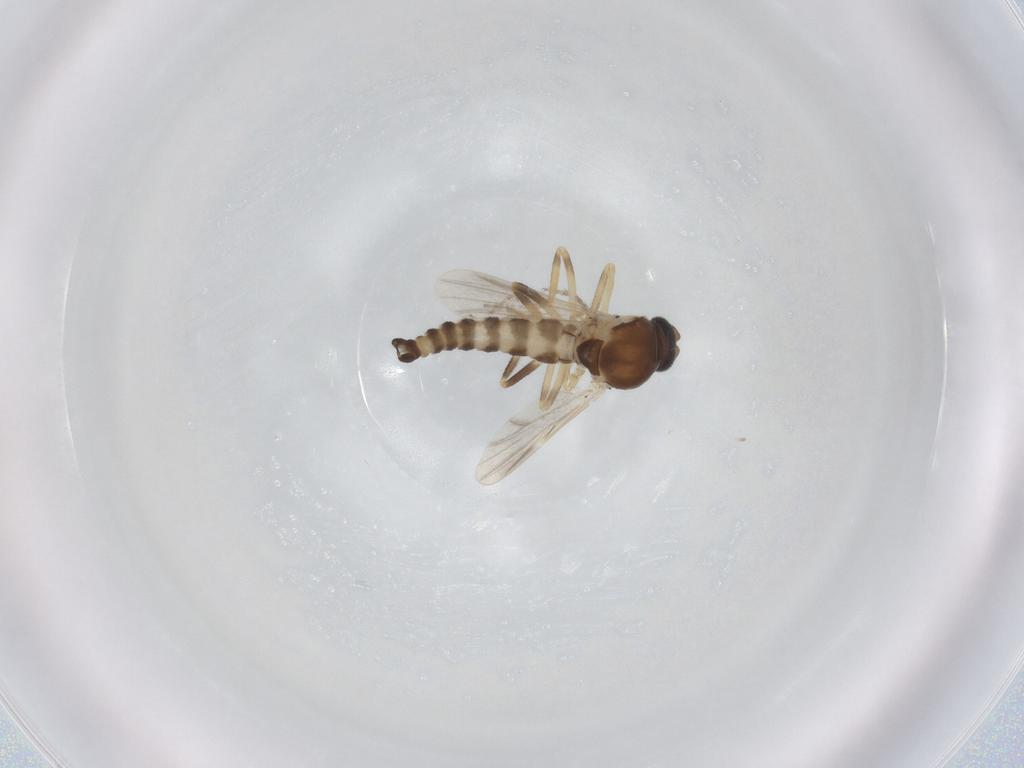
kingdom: Animalia
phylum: Arthropoda
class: Insecta
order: Diptera
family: Ceratopogonidae
